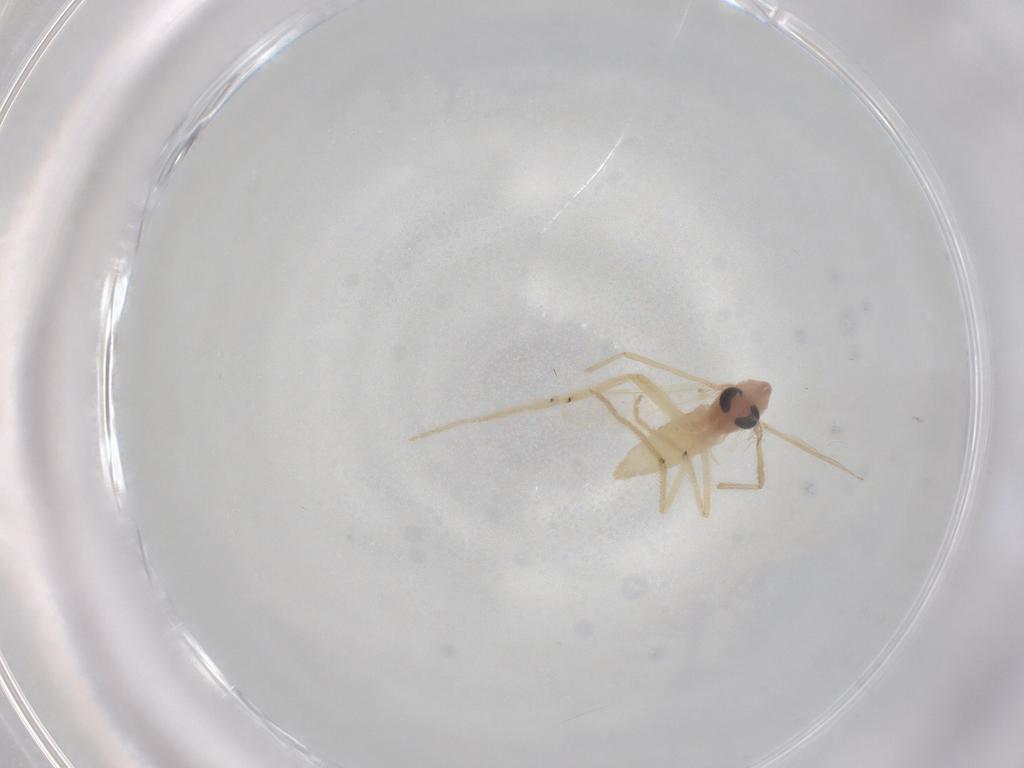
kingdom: Animalia
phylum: Arthropoda
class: Insecta
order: Diptera
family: Chironomidae
